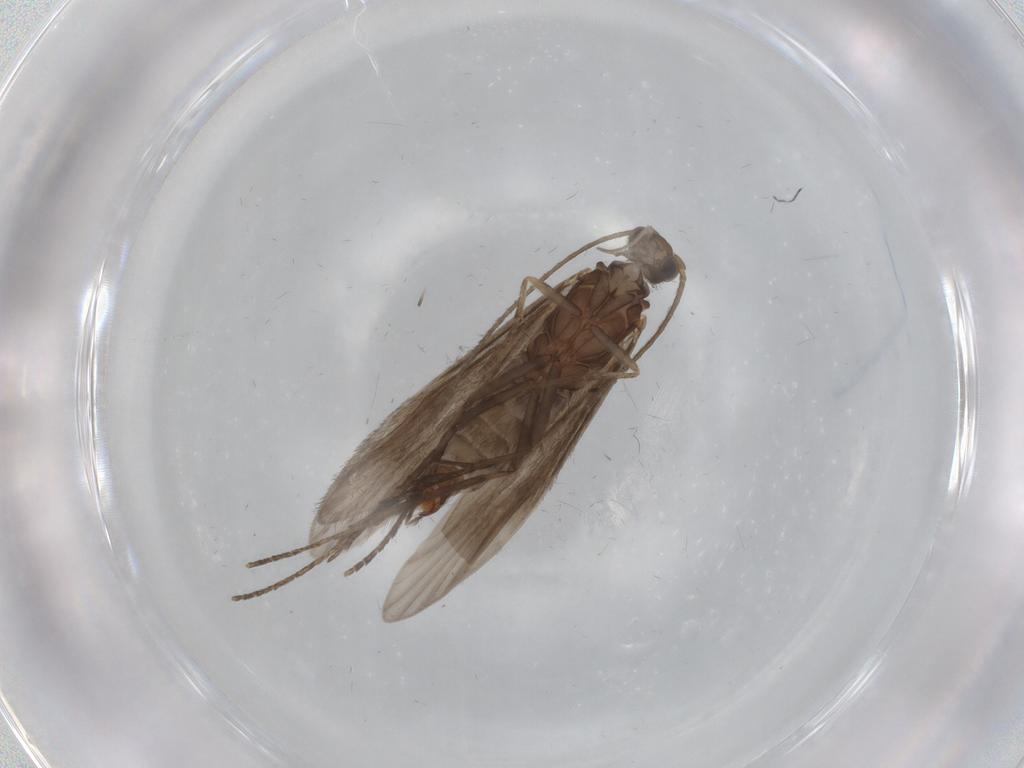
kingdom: Animalia
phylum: Arthropoda
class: Insecta
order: Trichoptera
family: Xiphocentronidae
